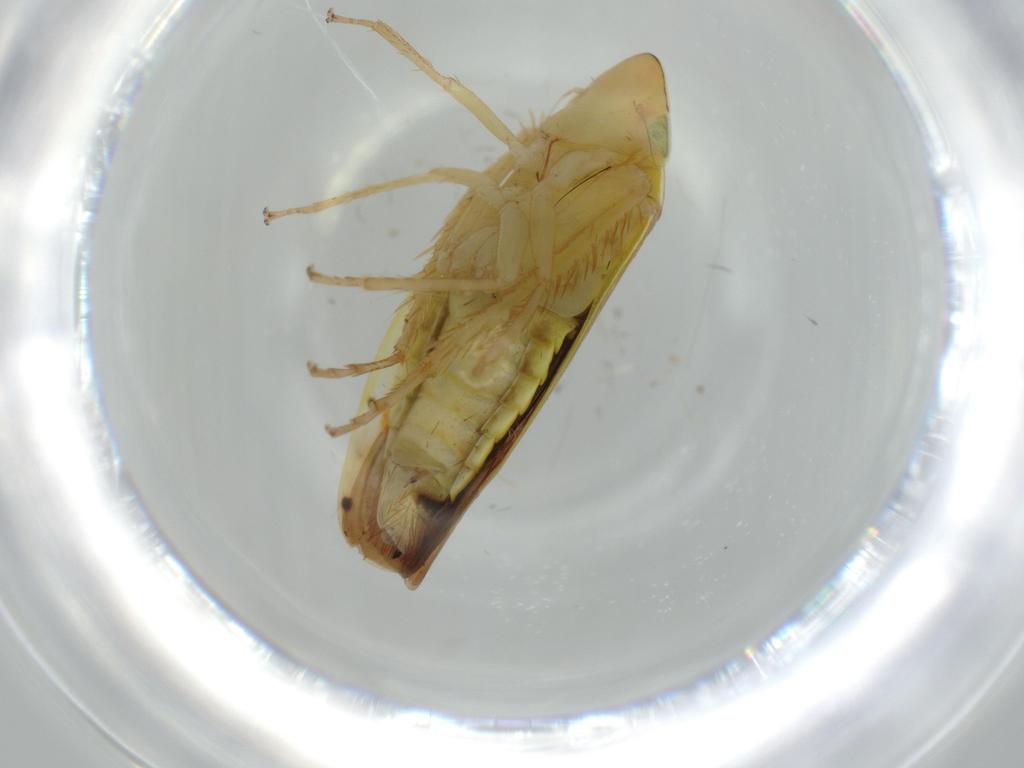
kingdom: Animalia
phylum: Arthropoda
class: Insecta
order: Hemiptera
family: Cicadellidae
